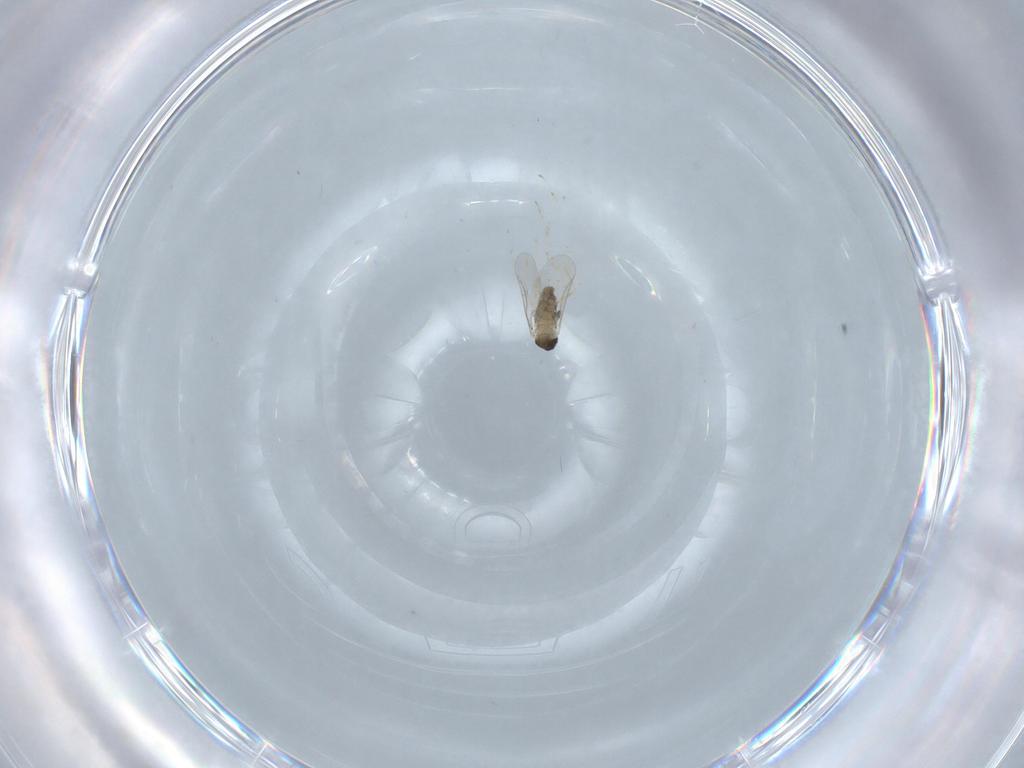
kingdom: Animalia
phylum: Arthropoda
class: Insecta
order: Diptera
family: Cecidomyiidae
